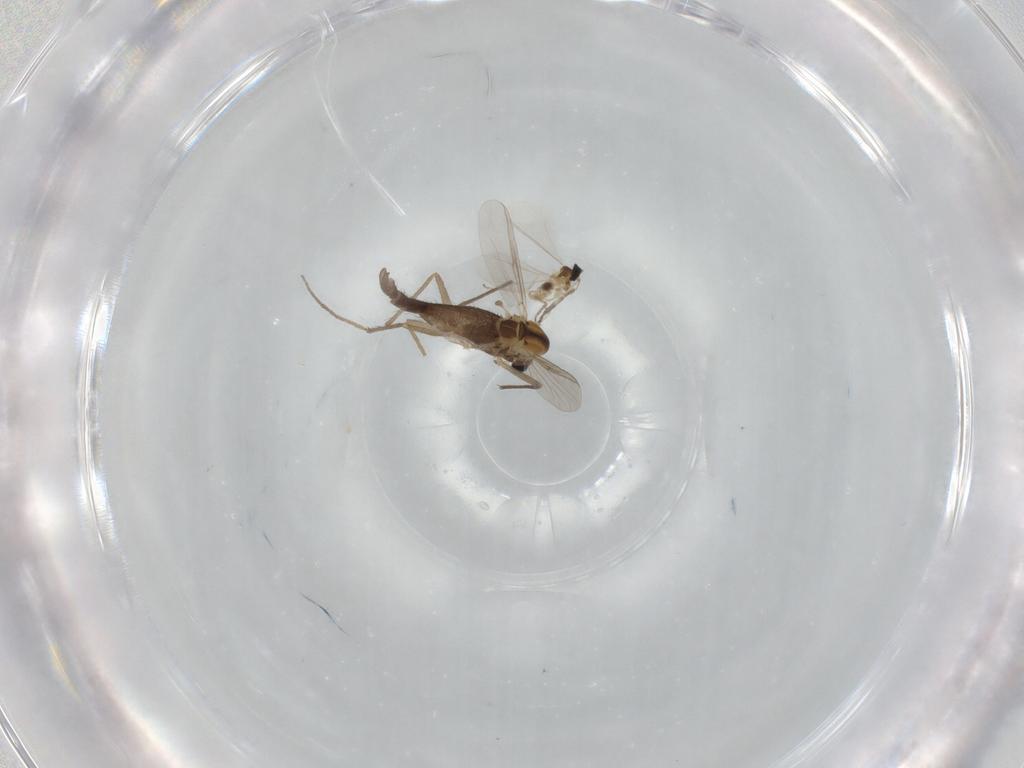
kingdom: Animalia
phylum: Arthropoda
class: Insecta
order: Diptera
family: Chironomidae
